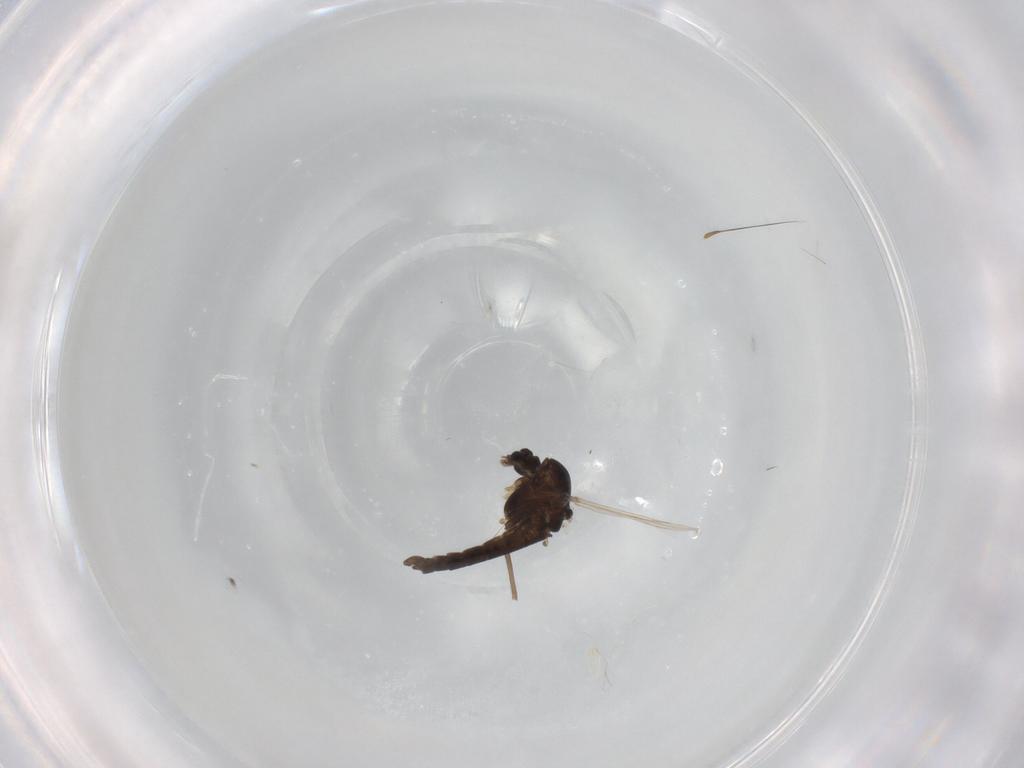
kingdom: Animalia
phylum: Arthropoda
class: Insecta
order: Diptera
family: Chironomidae
